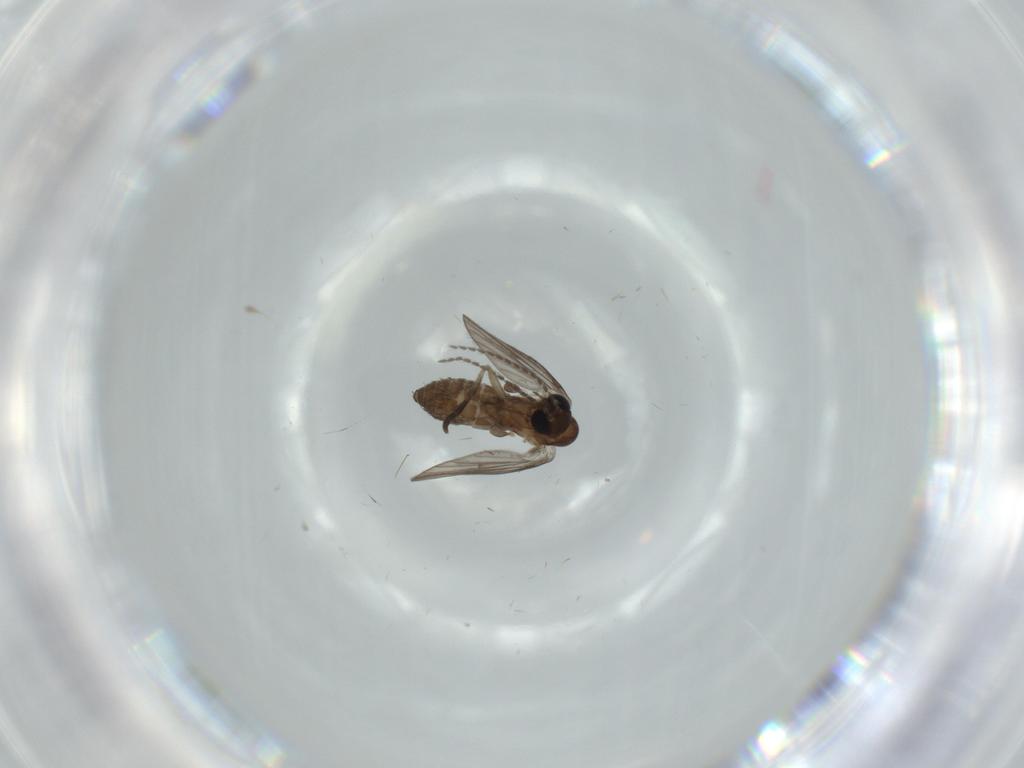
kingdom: Animalia
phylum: Arthropoda
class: Insecta
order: Diptera
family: Psychodidae
